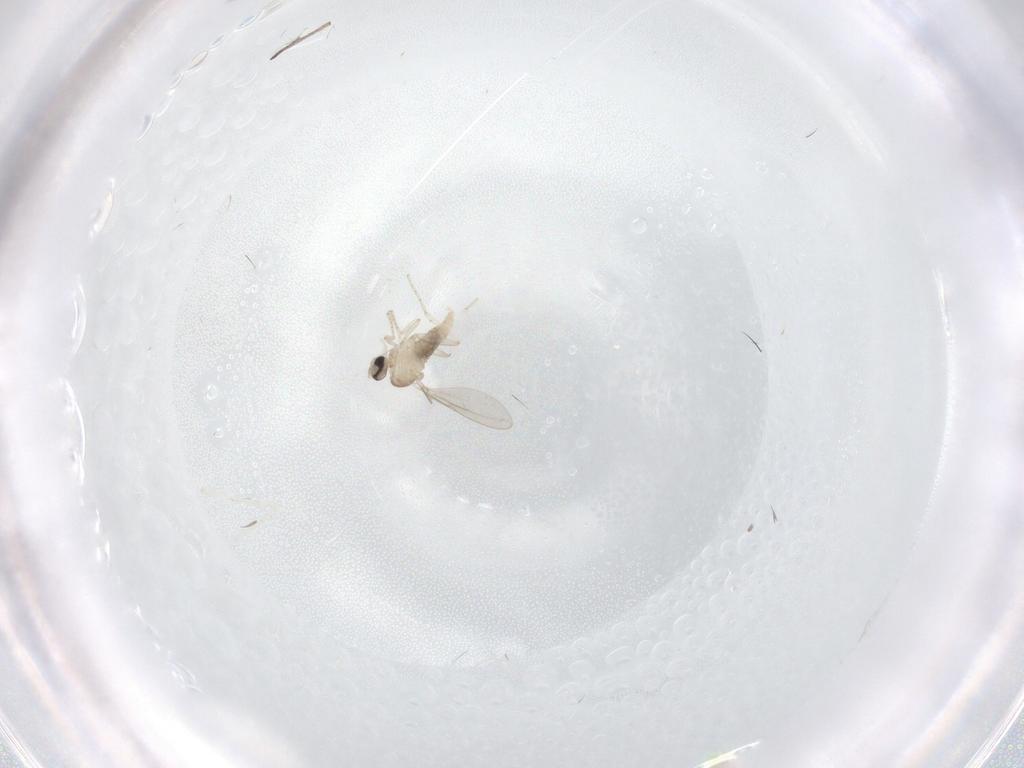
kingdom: Animalia
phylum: Arthropoda
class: Insecta
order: Diptera
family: Cecidomyiidae
